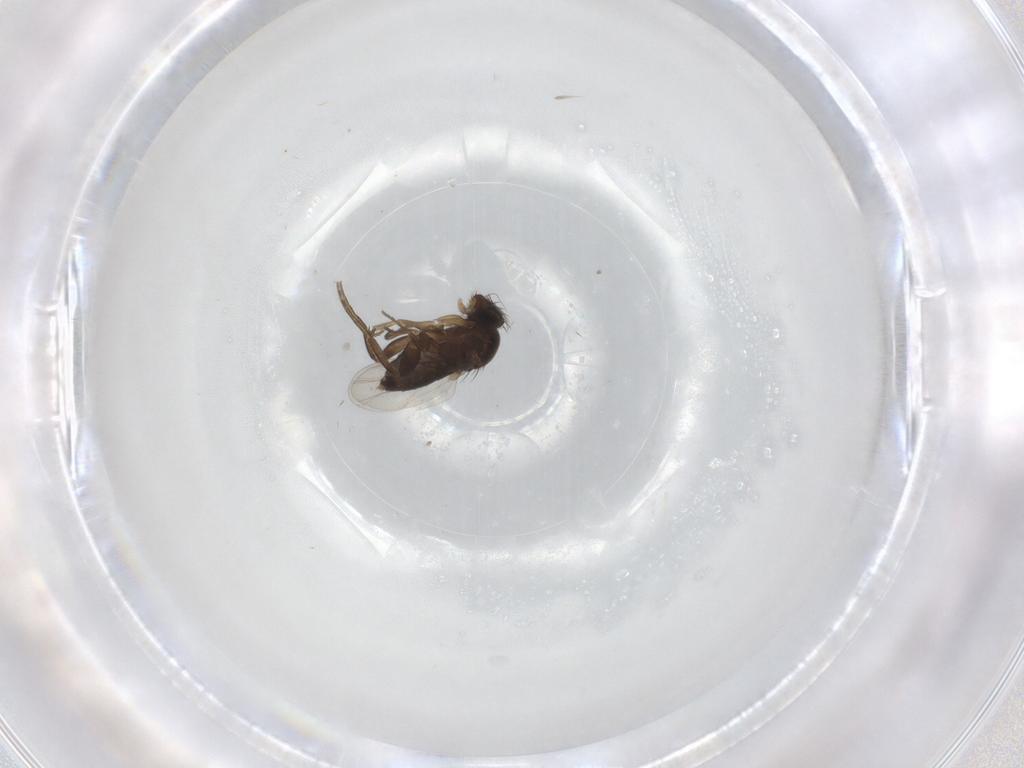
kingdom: Animalia
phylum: Arthropoda
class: Insecta
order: Diptera
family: Phoridae
